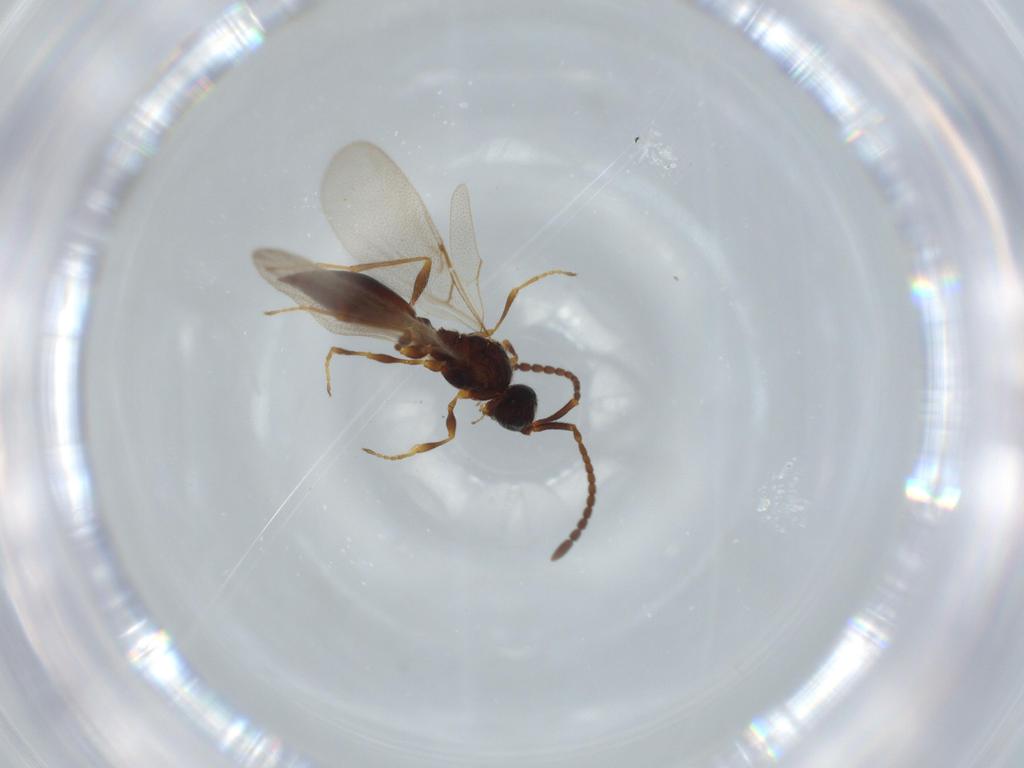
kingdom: Animalia
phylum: Arthropoda
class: Insecta
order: Hymenoptera
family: Diapriidae
